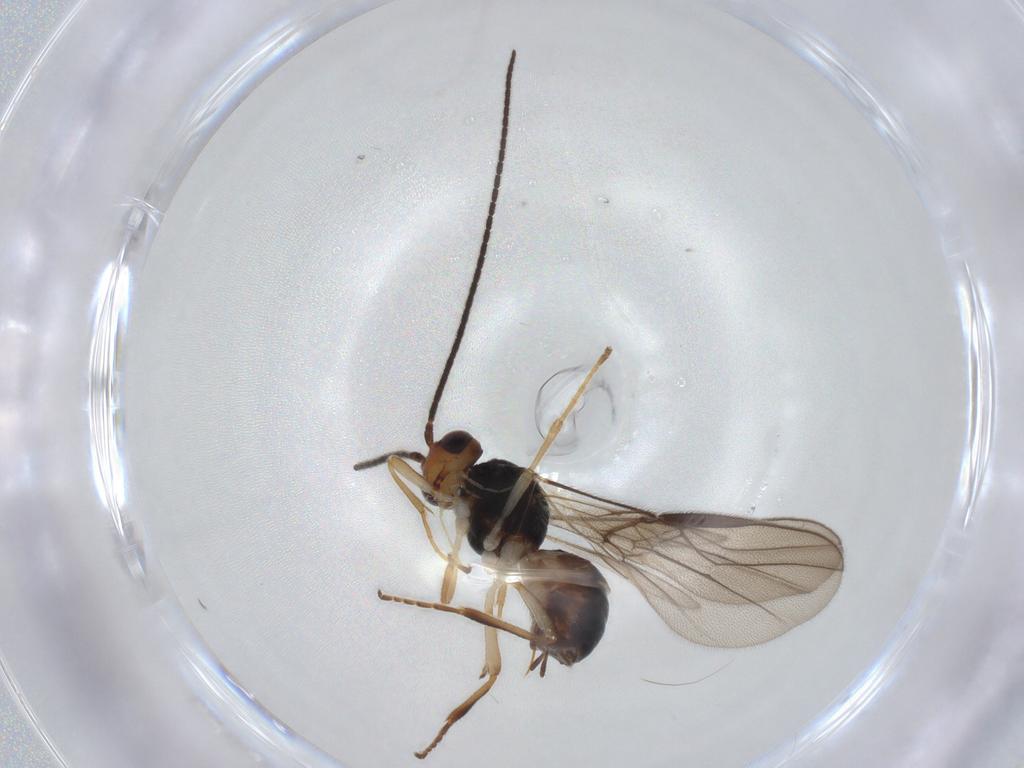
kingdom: Animalia
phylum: Arthropoda
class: Insecta
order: Hymenoptera
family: Braconidae
